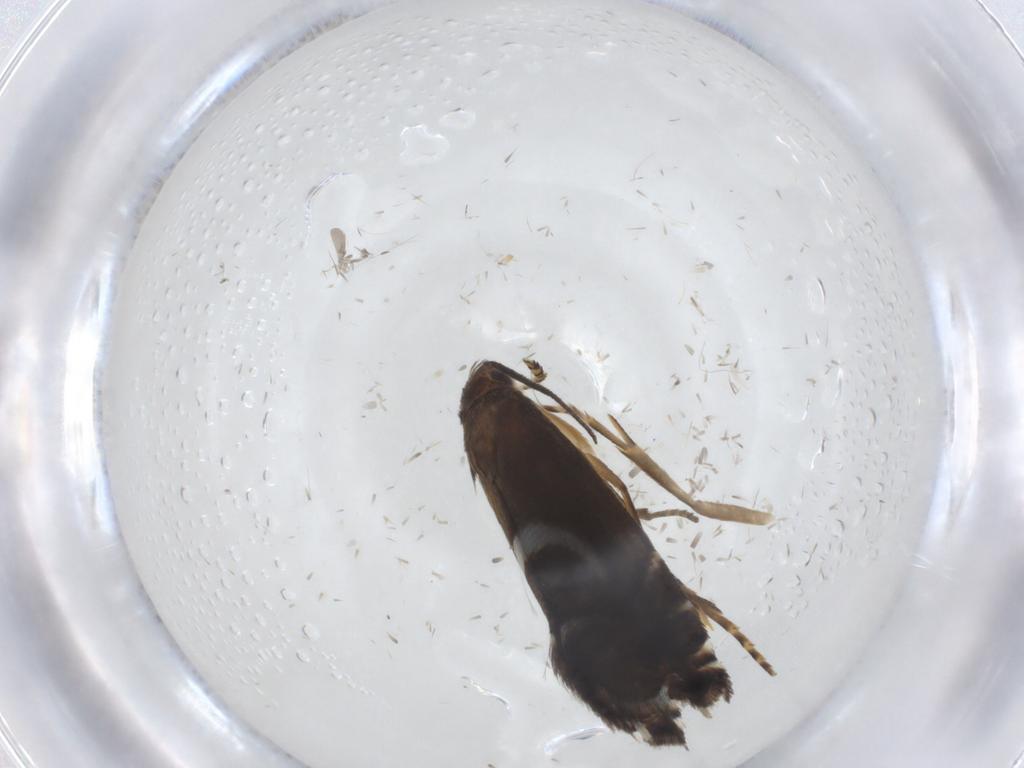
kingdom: Animalia
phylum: Arthropoda
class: Insecta
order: Lepidoptera
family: Gelechiidae
